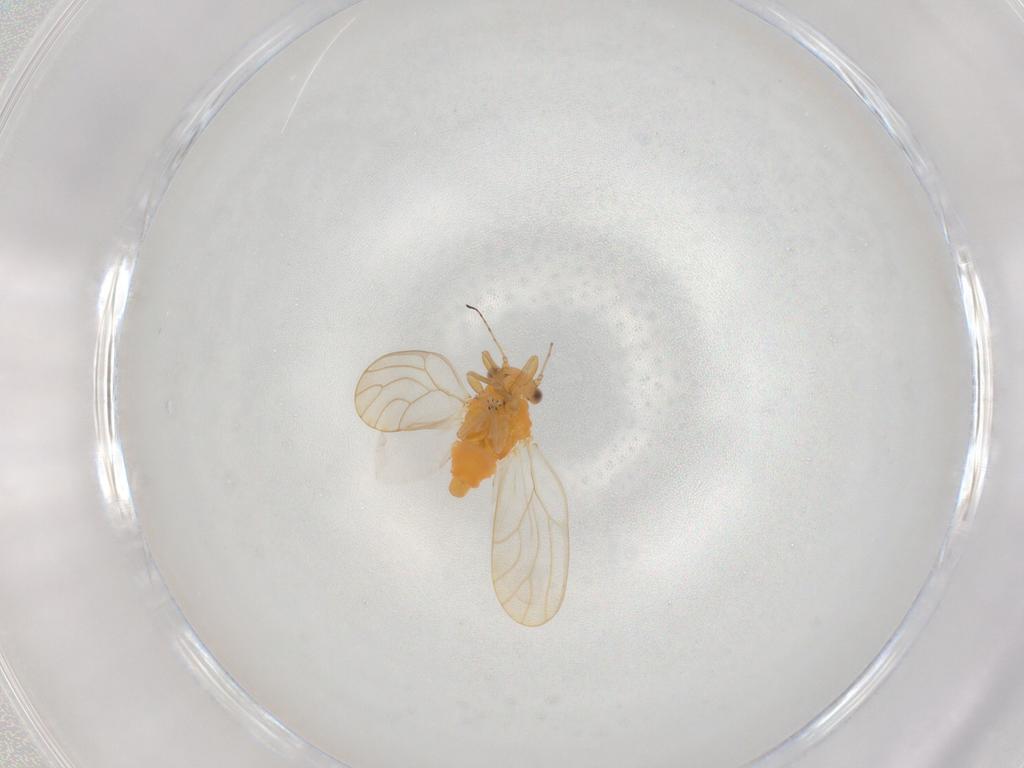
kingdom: Animalia
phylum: Arthropoda
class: Insecta
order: Hemiptera
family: Psylloidea_incertae_sedis
